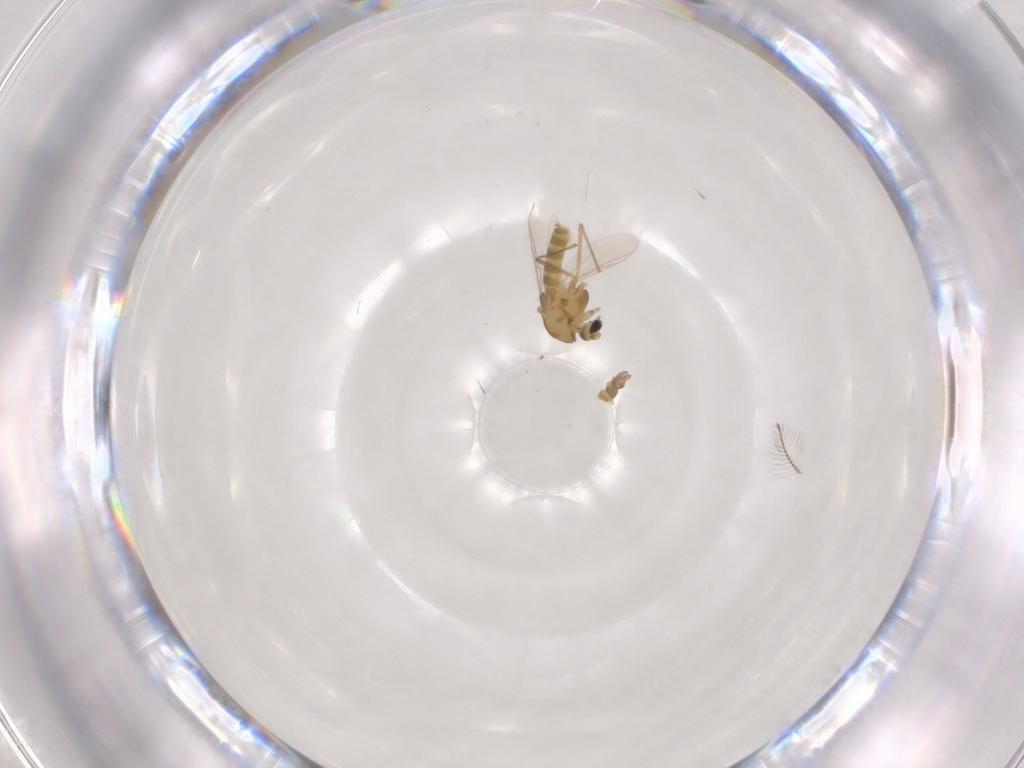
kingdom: Animalia
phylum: Arthropoda
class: Insecta
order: Diptera
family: Chironomidae
